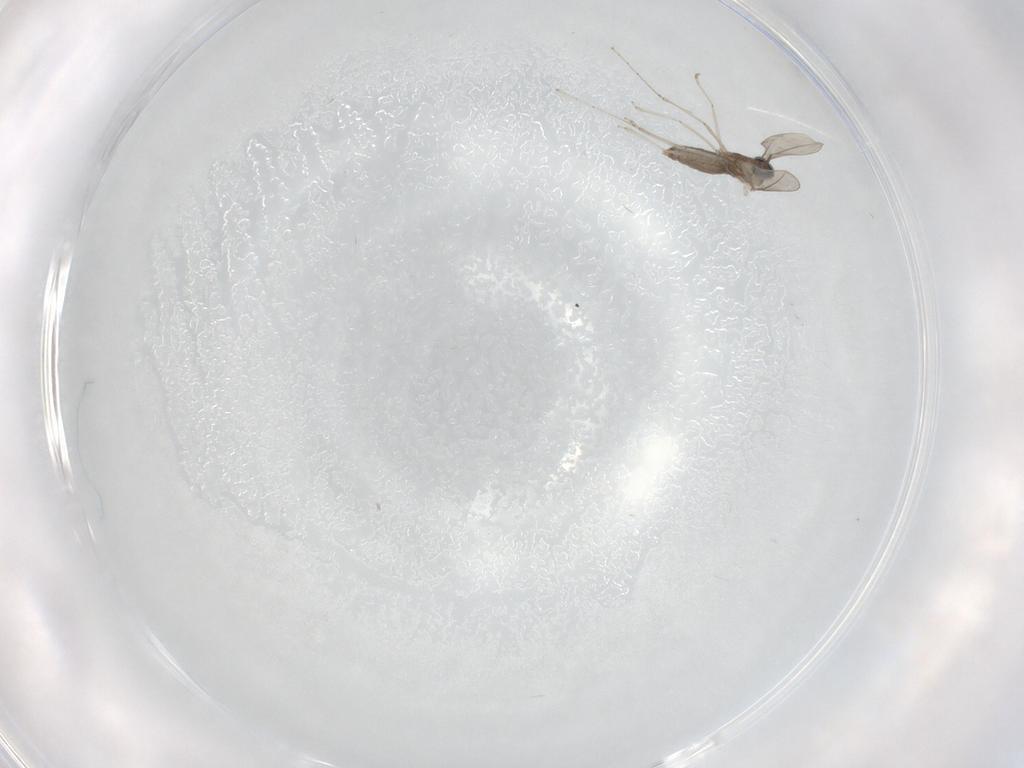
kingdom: Animalia
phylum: Arthropoda
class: Insecta
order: Diptera
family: Cecidomyiidae
